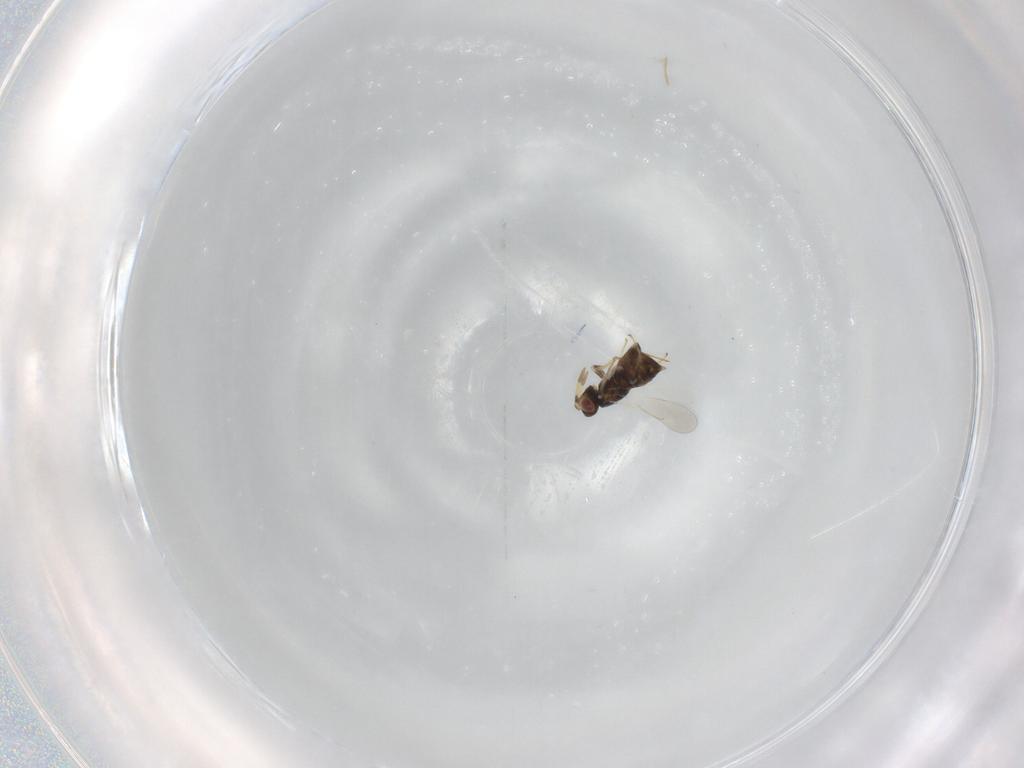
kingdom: Animalia
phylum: Arthropoda
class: Insecta
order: Hymenoptera
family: Aphelinidae
